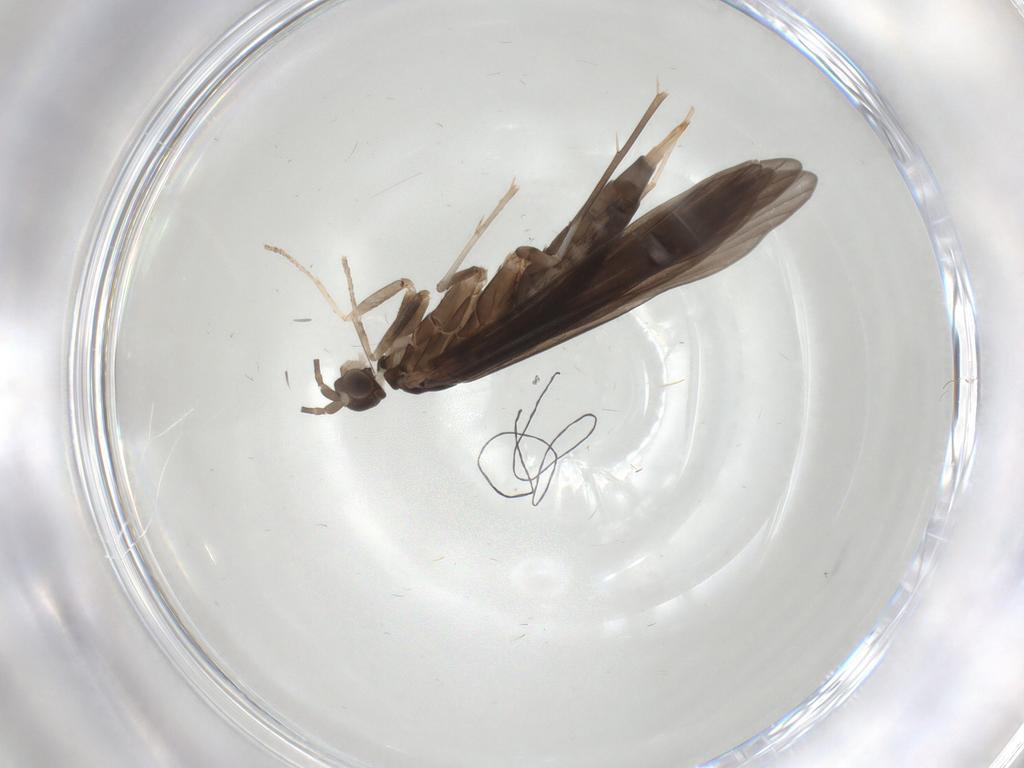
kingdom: Animalia
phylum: Arthropoda
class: Insecta
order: Trichoptera
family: Xiphocentronidae
